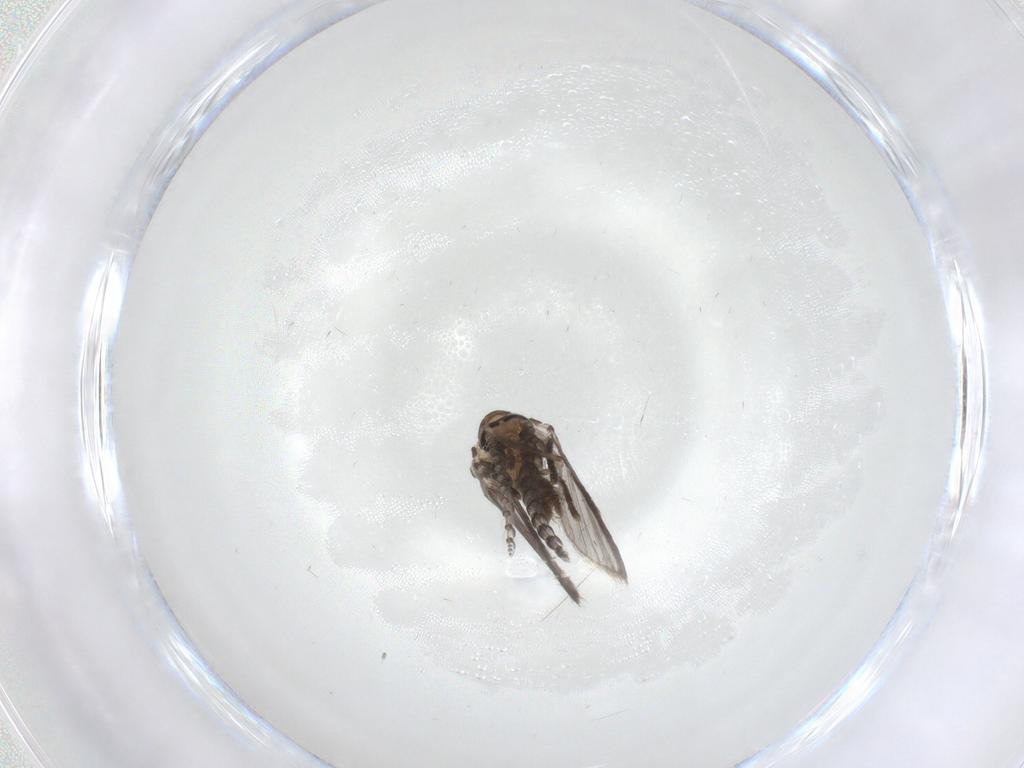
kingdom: Animalia
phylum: Arthropoda
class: Insecta
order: Diptera
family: Psychodidae
